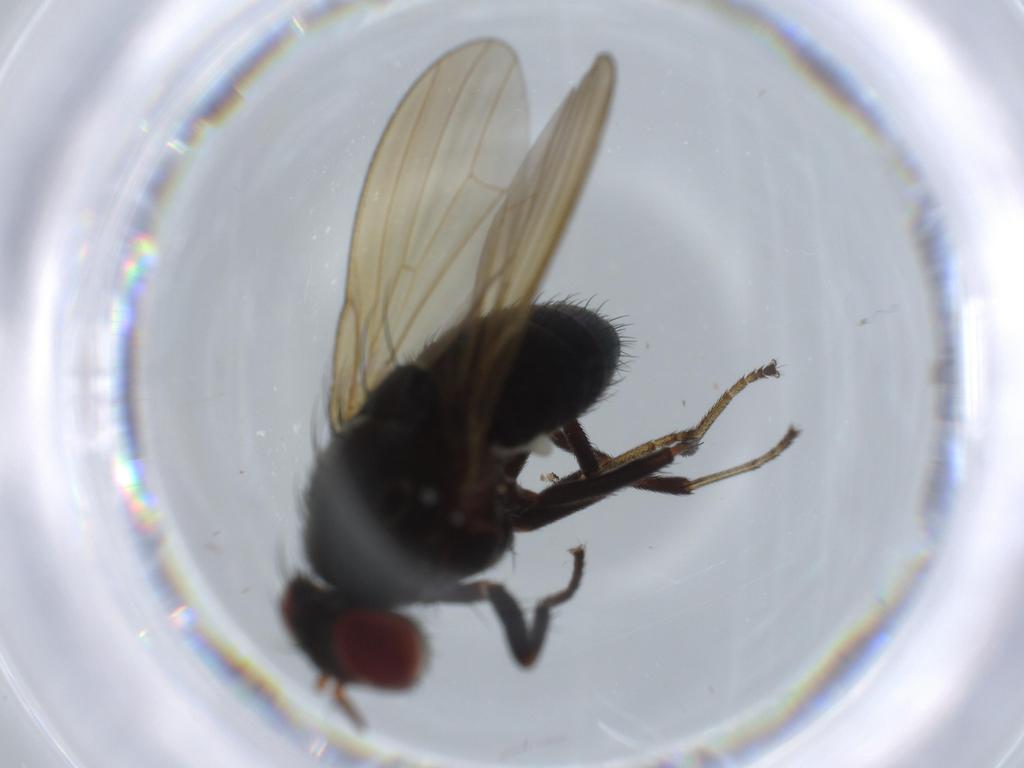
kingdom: Animalia
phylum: Arthropoda
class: Insecta
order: Diptera
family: Lauxaniidae
